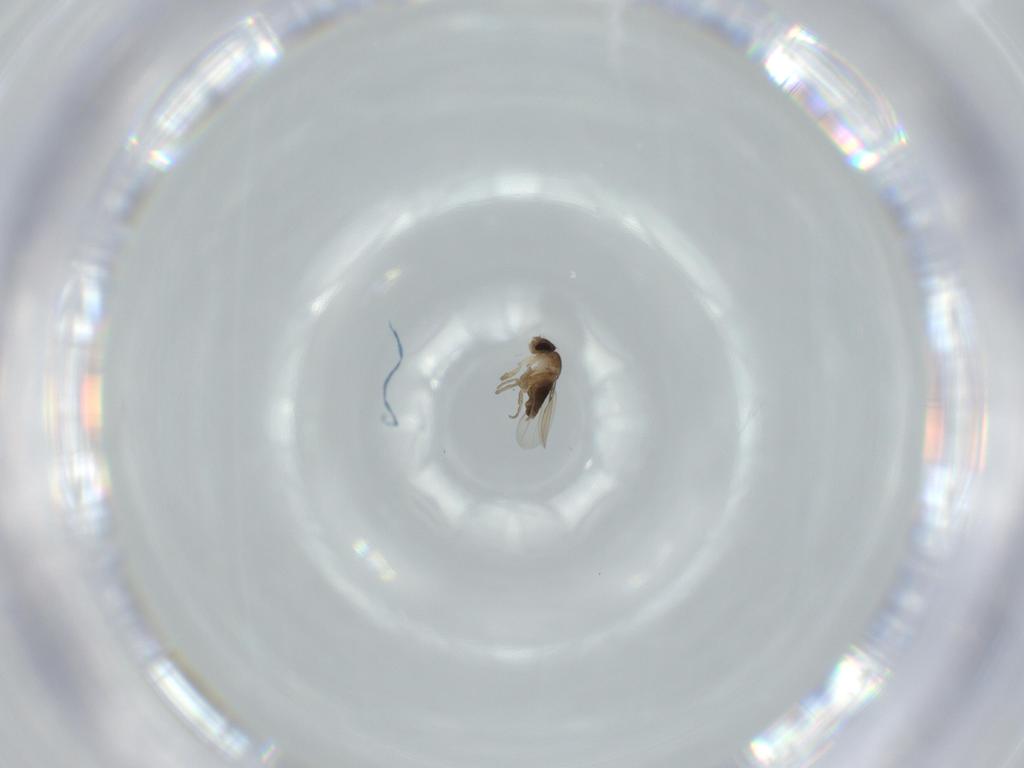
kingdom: Animalia
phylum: Arthropoda
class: Insecta
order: Diptera
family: Phoridae
